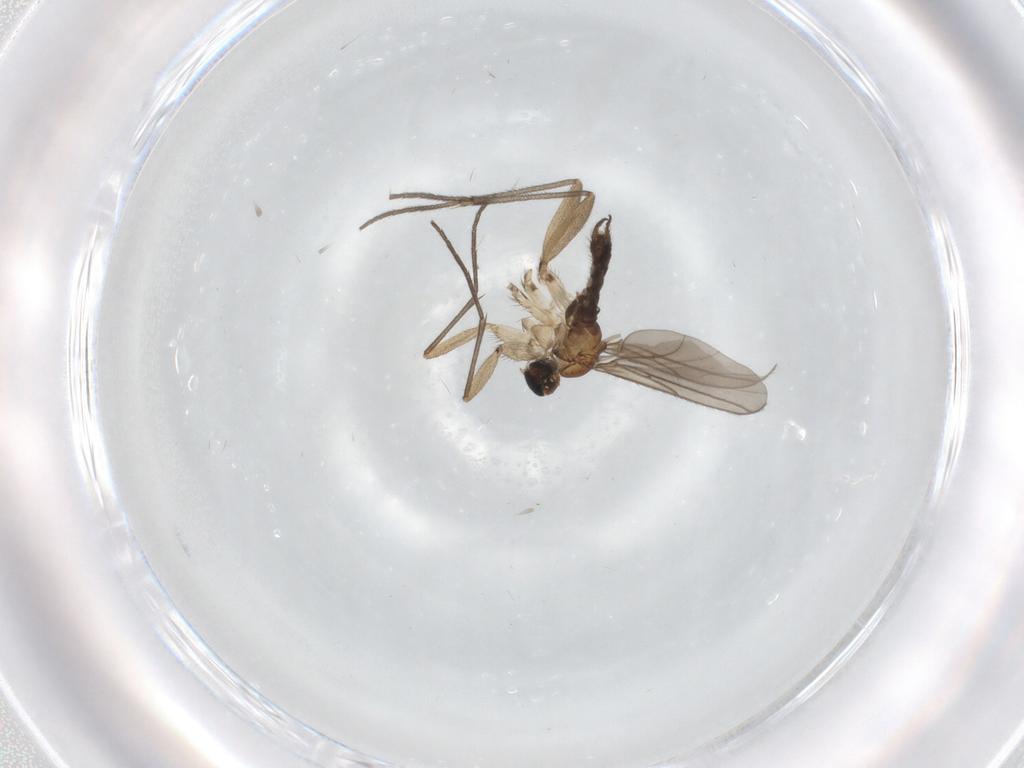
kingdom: Animalia
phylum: Arthropoda
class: Insecta
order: Diptera
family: Sciaridae
